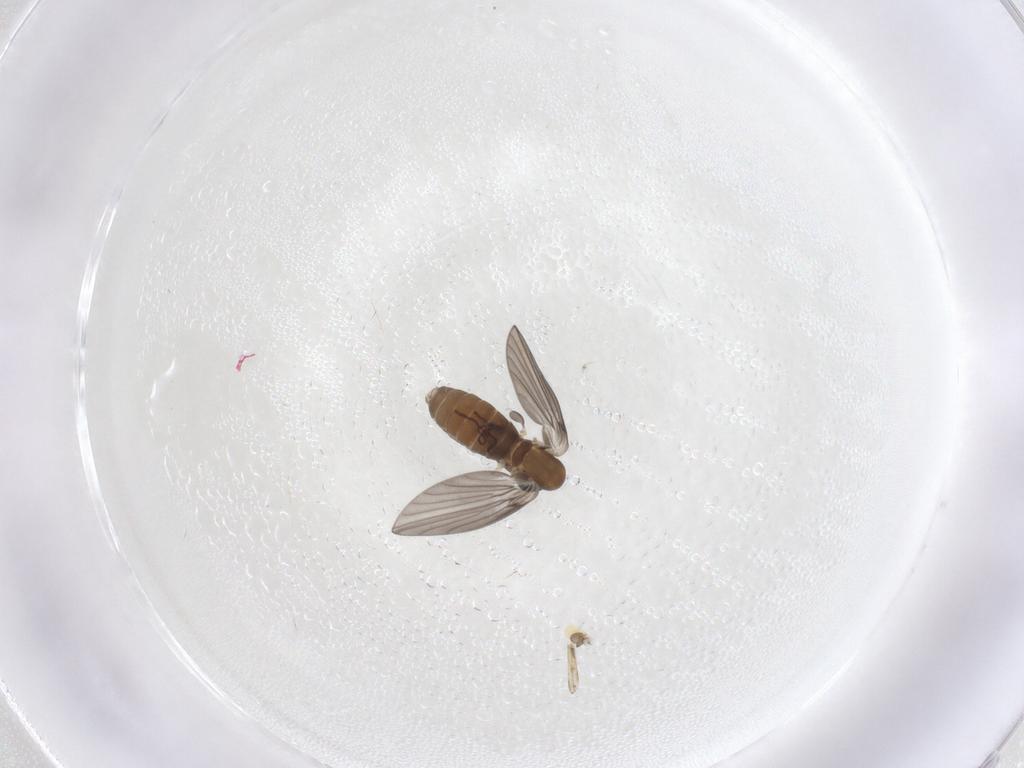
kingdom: Animalia
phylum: Arthropoda
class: Insecta
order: Diptera
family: Psychodidae
